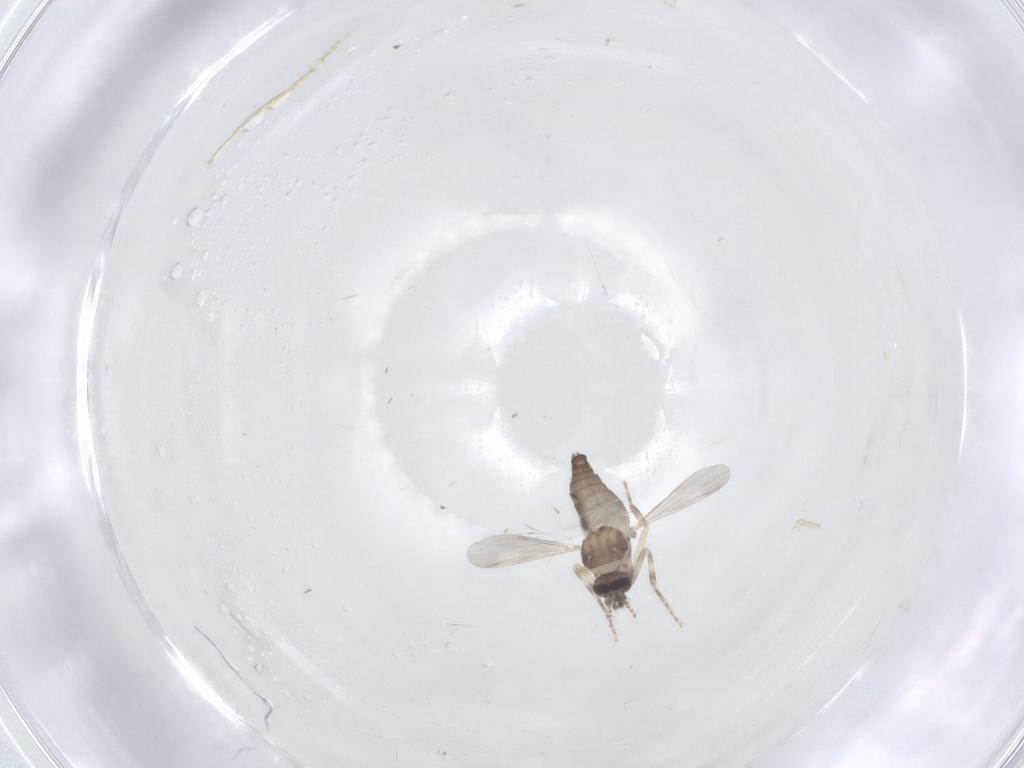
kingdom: Animalia
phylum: Arthropoda
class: Insecta
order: Diptera
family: Ceratopogonidae
